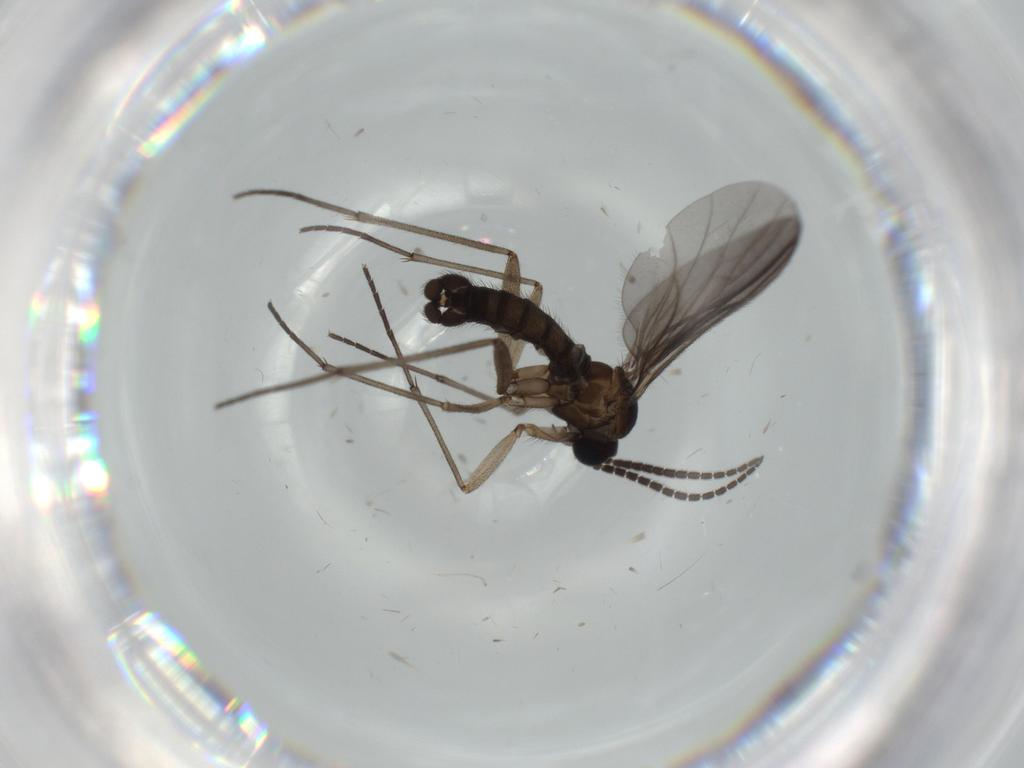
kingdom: Animalia
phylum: Arthropoda
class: Insecta
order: Diptera
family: Sciaridae
